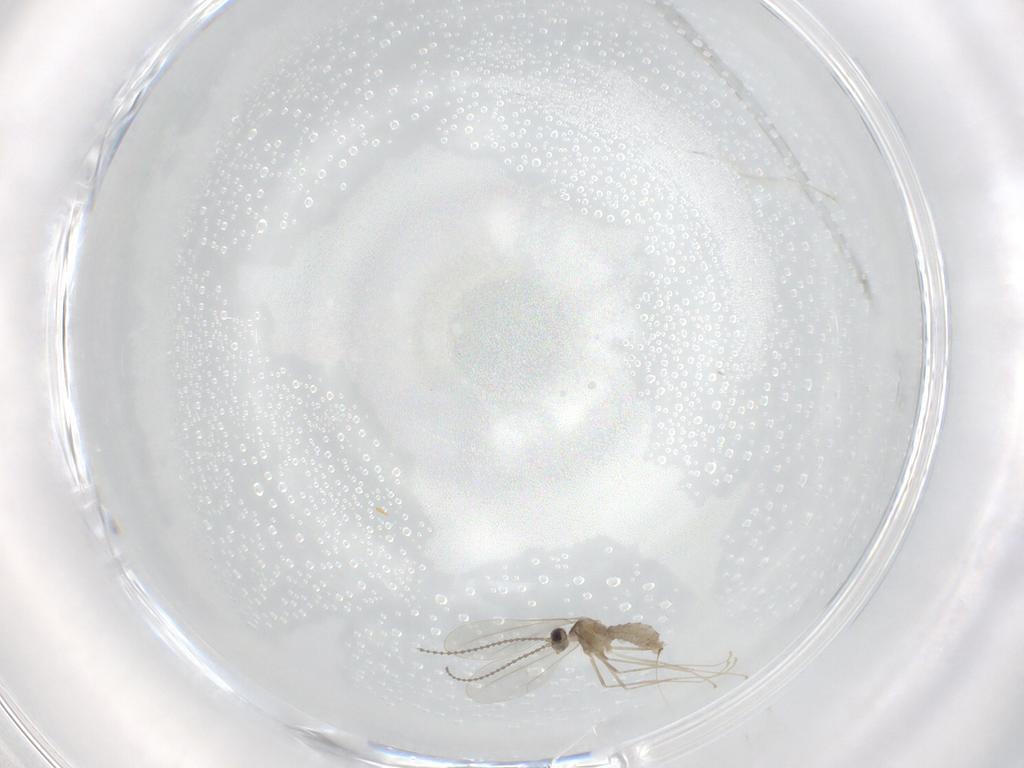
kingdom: Animalia
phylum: Arthropoda
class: Insecta
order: Diptera
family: Cecidomyiidae
